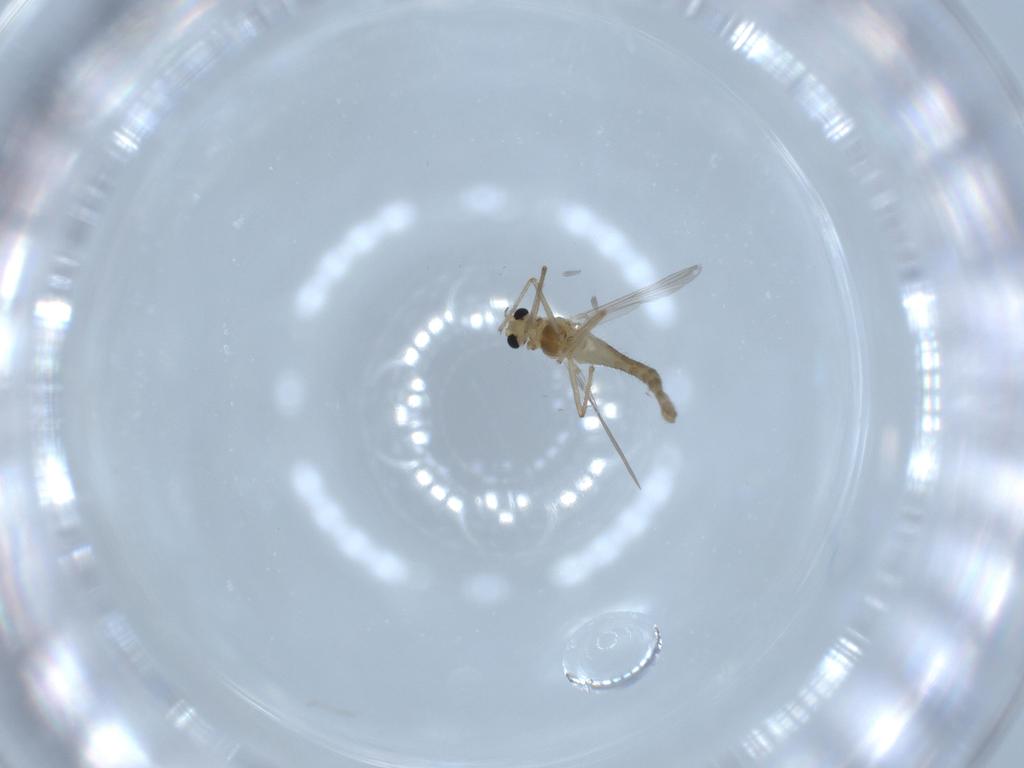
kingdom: Animalia
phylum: Arthropoda
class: Insecta
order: Diptera
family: Chironomidae
